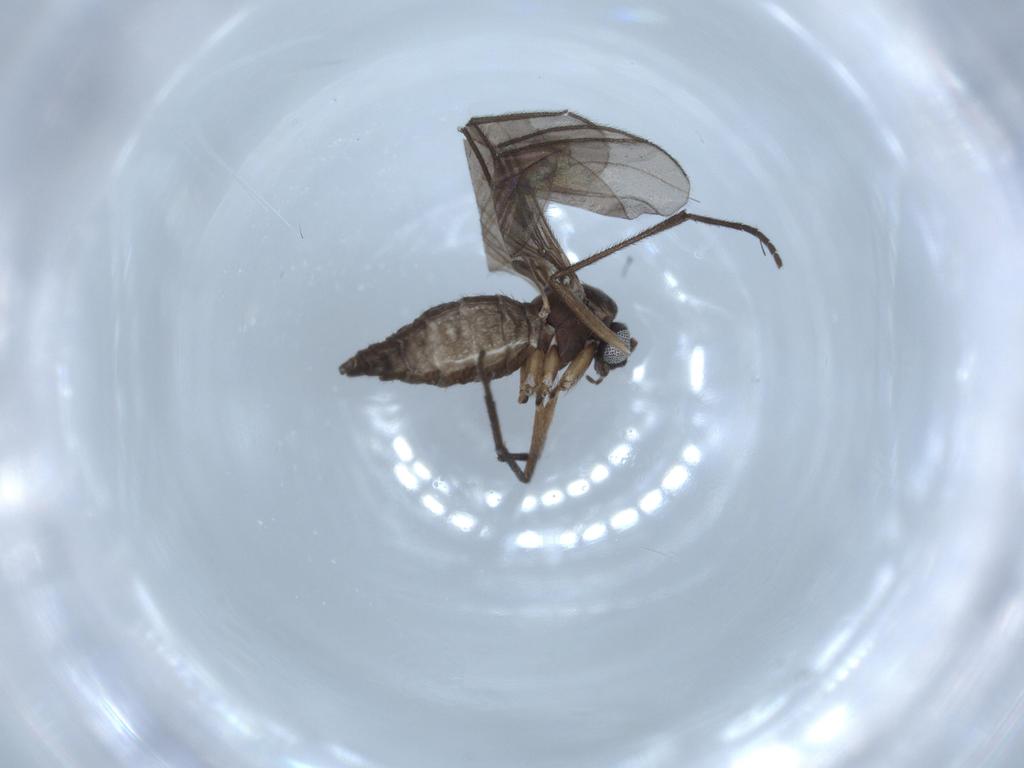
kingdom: Animalia
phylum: Arthropoda
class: Insecta
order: Diptera
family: Sciaridae
